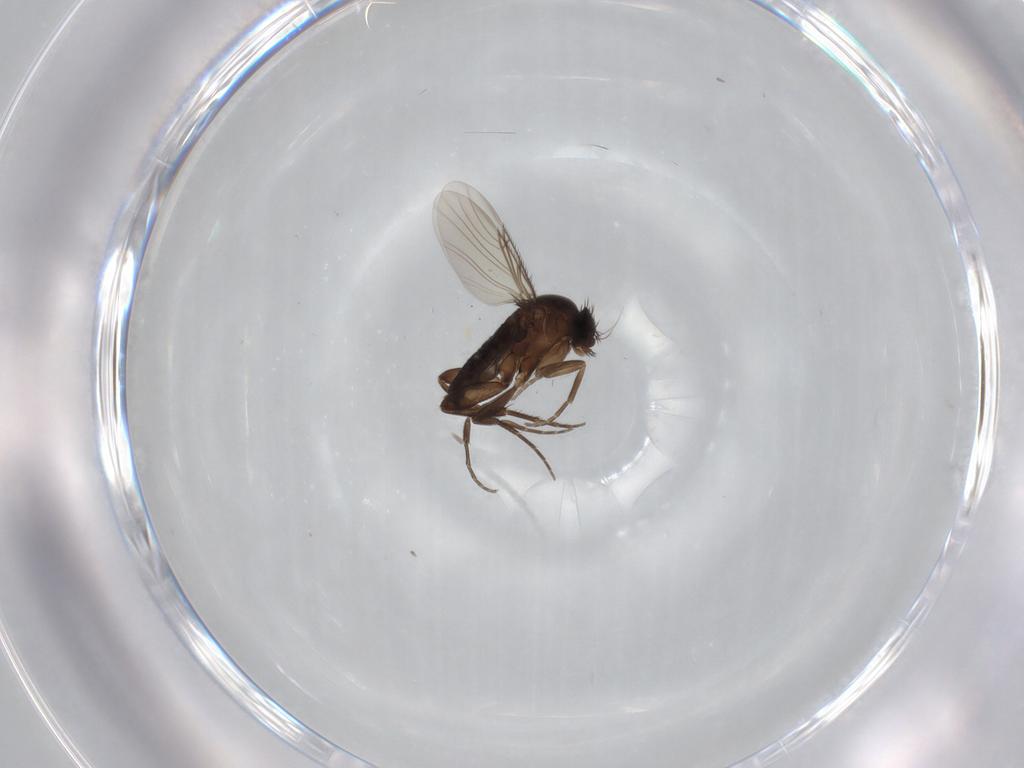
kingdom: Animalia
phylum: Arthropoda
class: Insecta
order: Diptera
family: Phoridae
